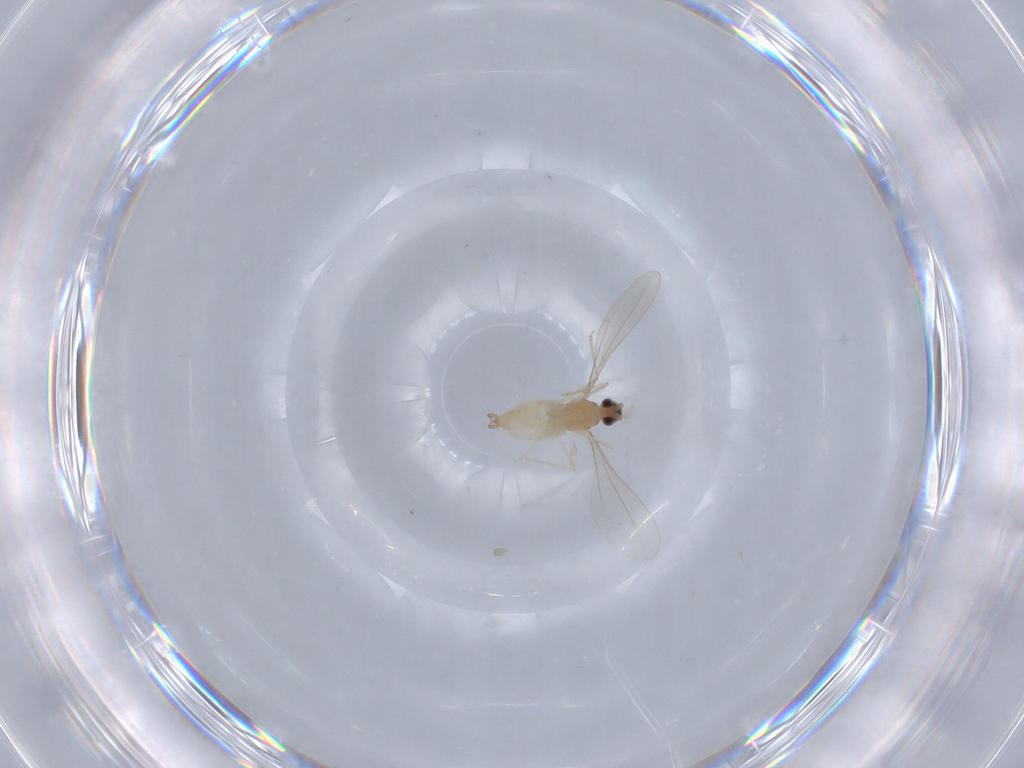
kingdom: Animalia
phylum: Arthropoda
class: Insecta
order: Diptera
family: Cecidomyiidae
